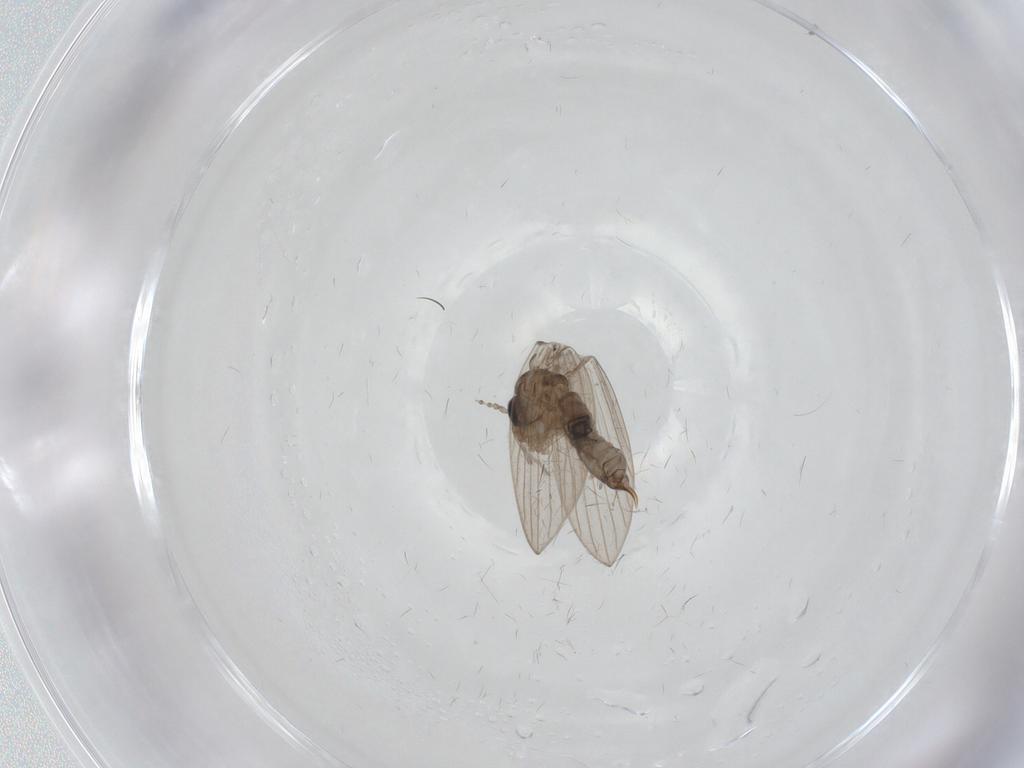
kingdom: Animalia
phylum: Arthropoda
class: Insecta
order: Diptera
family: Psychodidae
